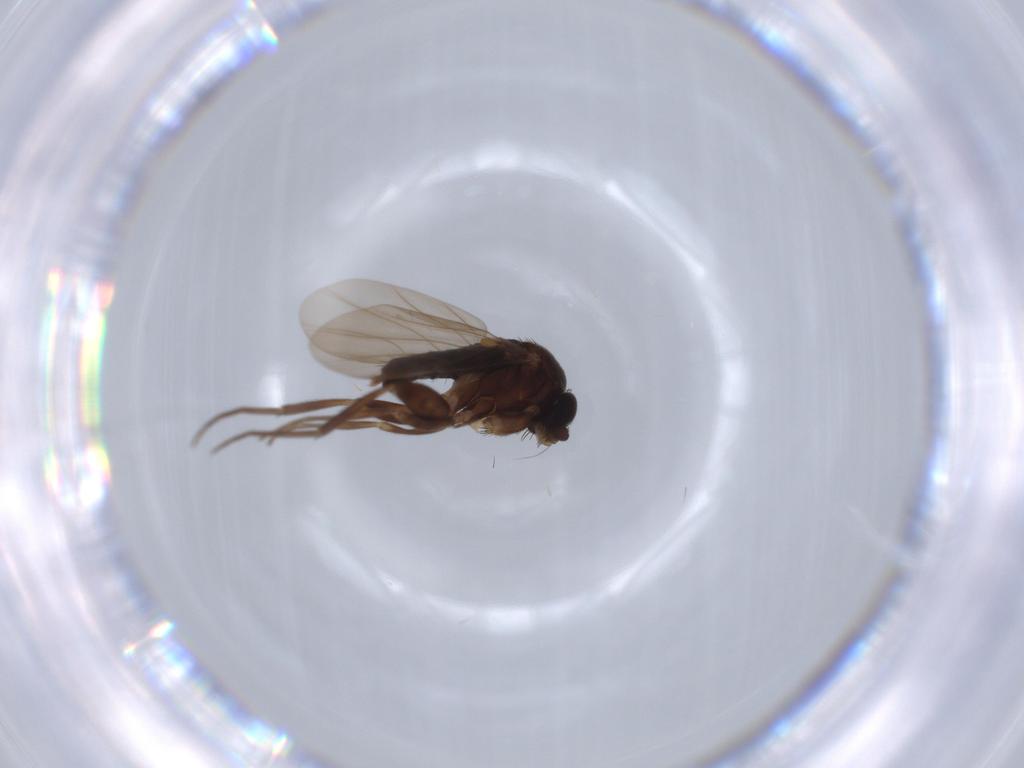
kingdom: Animalia
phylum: Arthropoda
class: Insecta
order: Diptera
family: Phoridae
